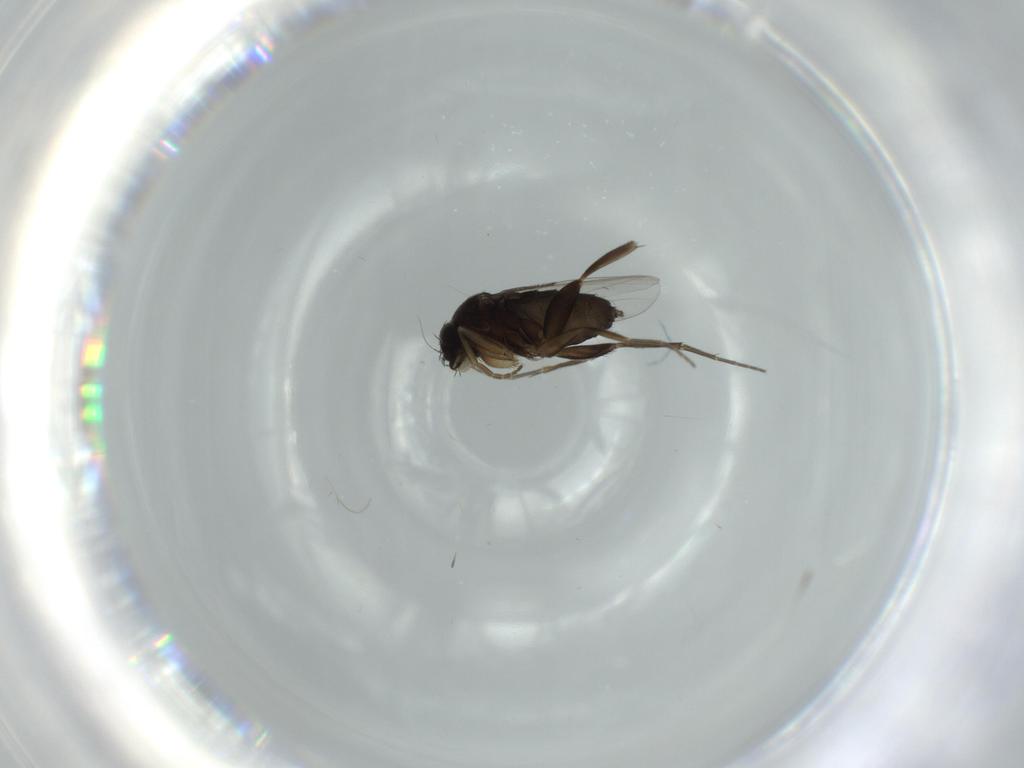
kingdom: Animalia
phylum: Arthropoda
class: Insecta
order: Diptera
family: Phoridae
